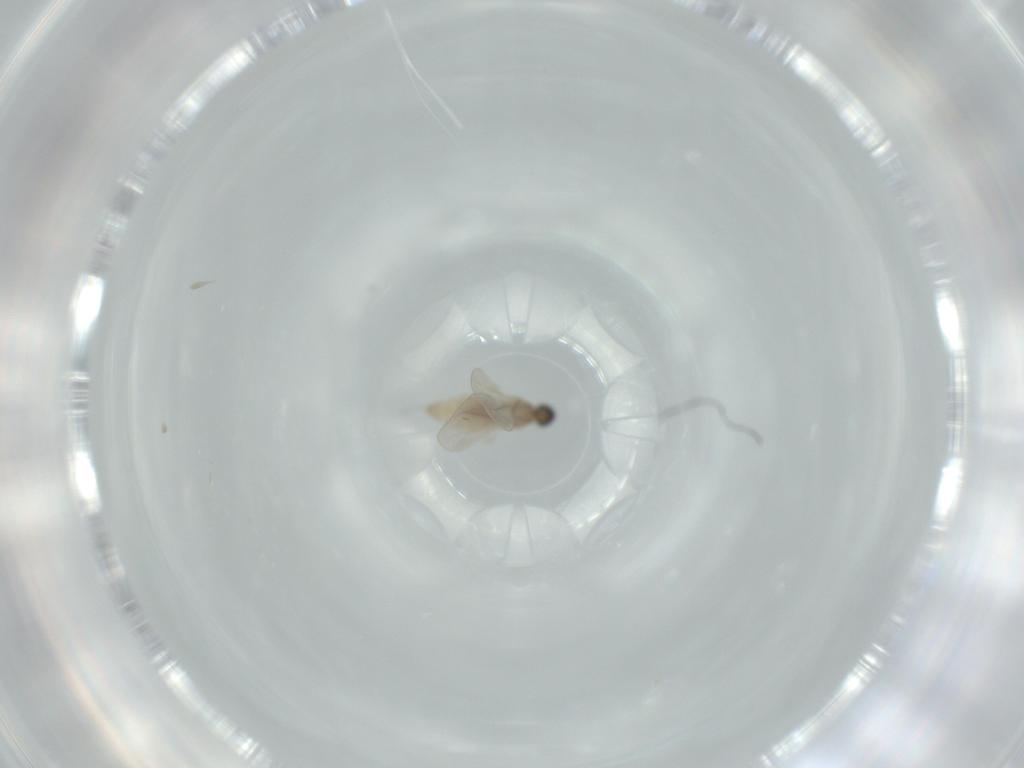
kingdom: Animalia
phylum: Arthropoda
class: Insecta
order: Diptera
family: Cecidomyiidae
